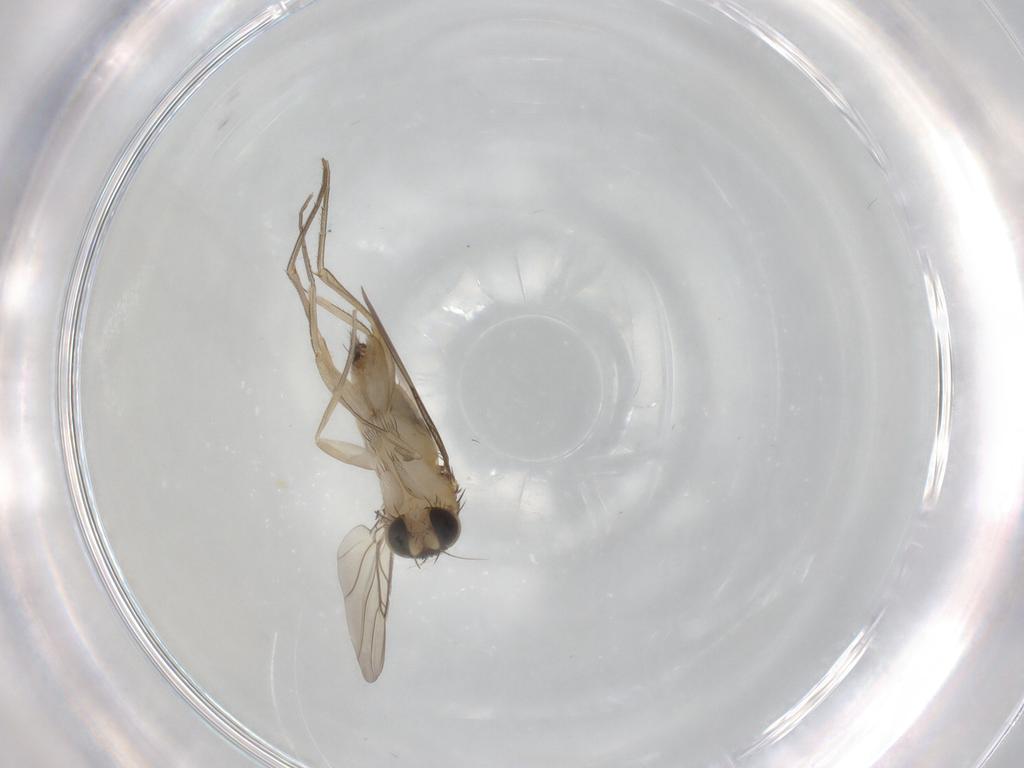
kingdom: Animalia
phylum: Arthropoda
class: Insecta
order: Diptera
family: Phoridae
